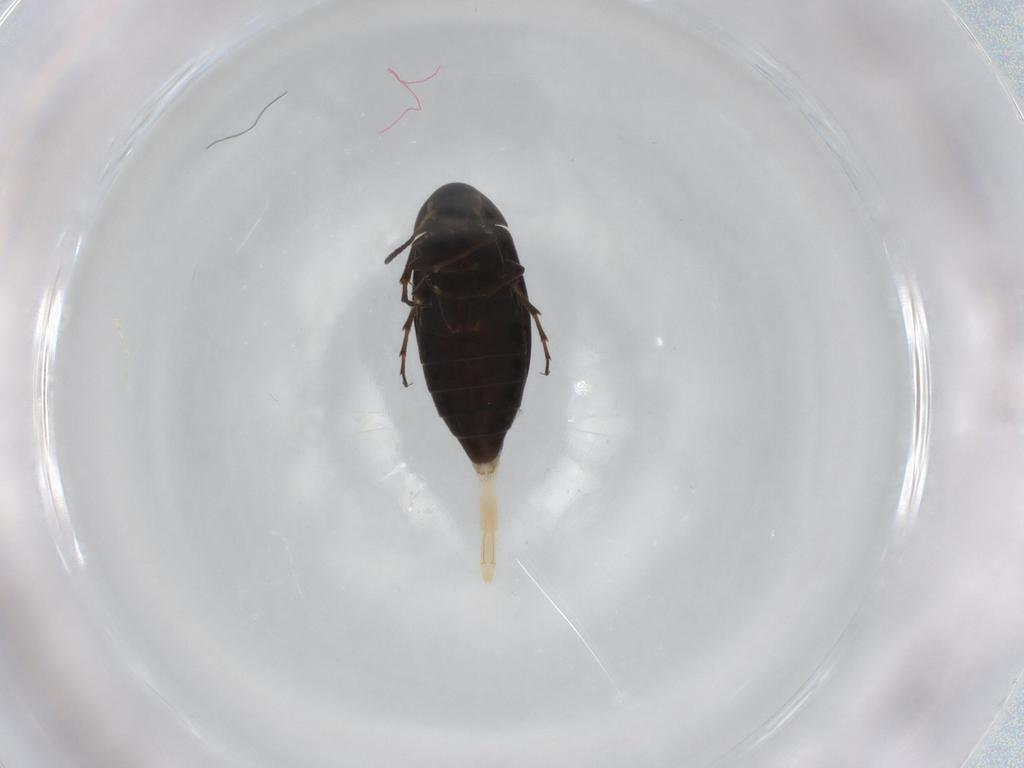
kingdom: Animalia
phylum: Arthropoda
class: Insecta
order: Coleoptera
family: Scraptiidae
